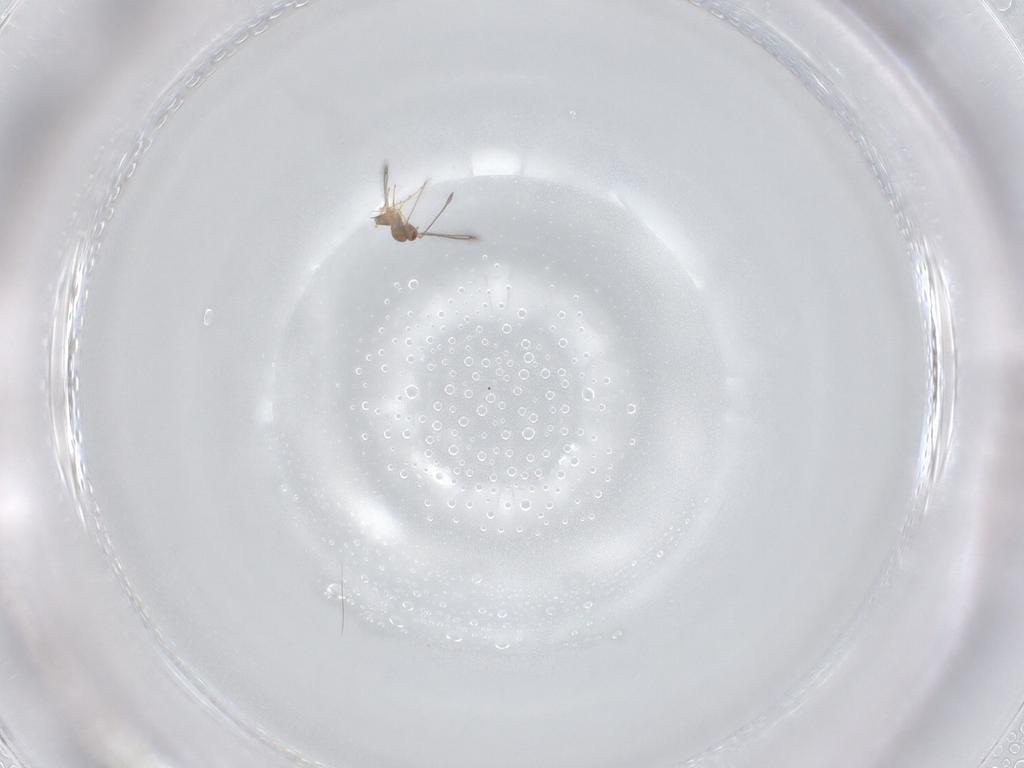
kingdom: Animalia
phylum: Arthropoda
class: Insecta
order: Hymenoptera
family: Mymaridae
